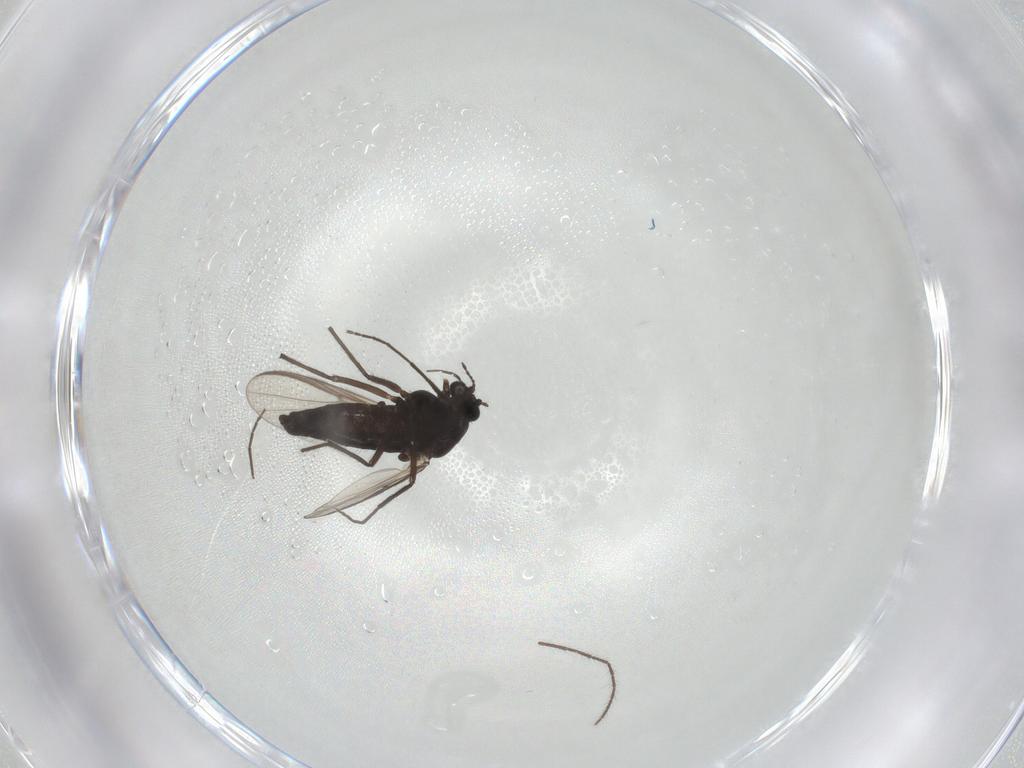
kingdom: Animalia
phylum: Arthropoda
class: Insecta
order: Diptera
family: Chironomidae
